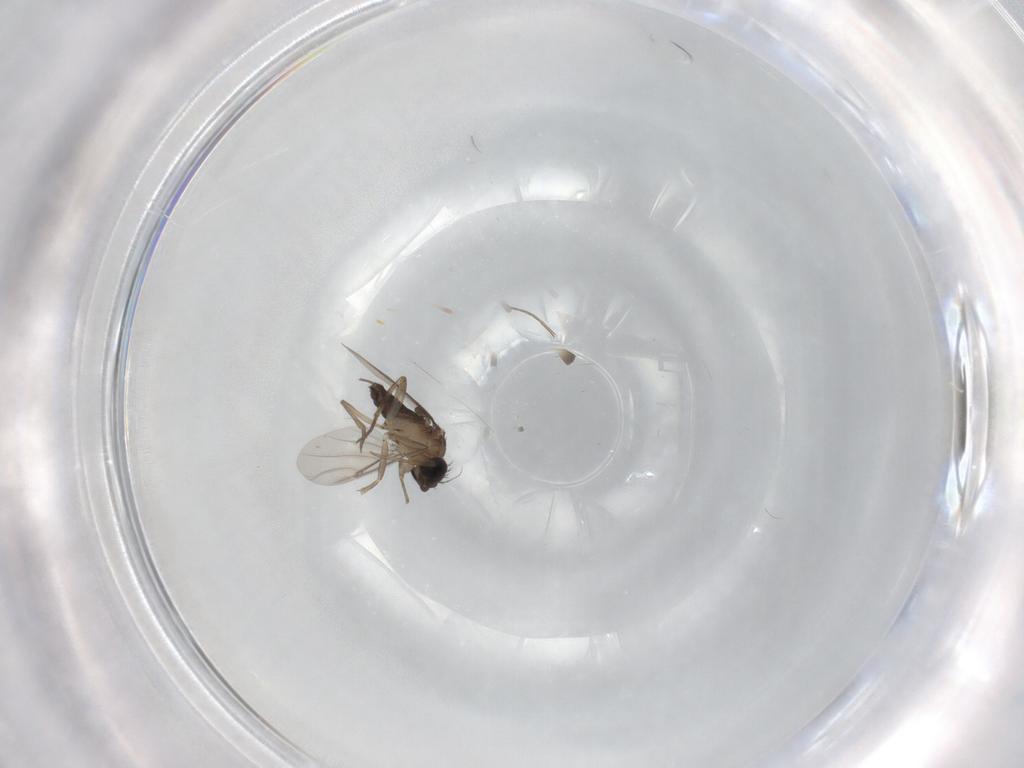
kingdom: Animalia
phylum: Arthropoda
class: Insecta
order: Diptera
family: Phoridae
